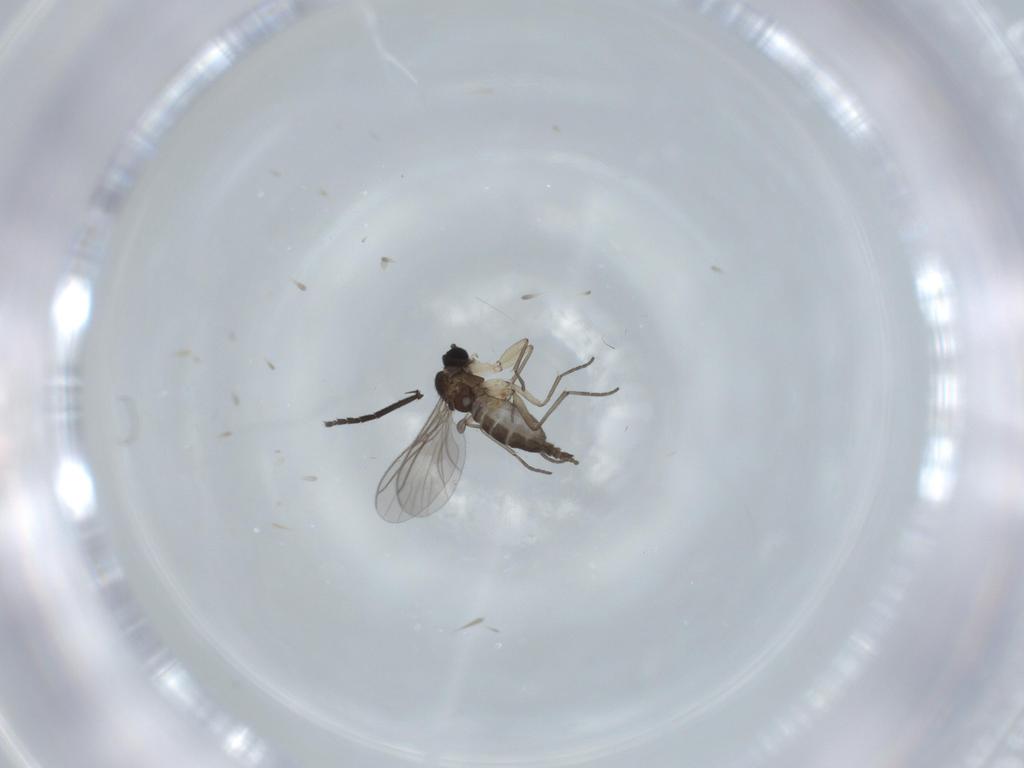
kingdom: Animalia
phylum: Arthropoda
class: Insecta
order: Diptera
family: Sciaridae
